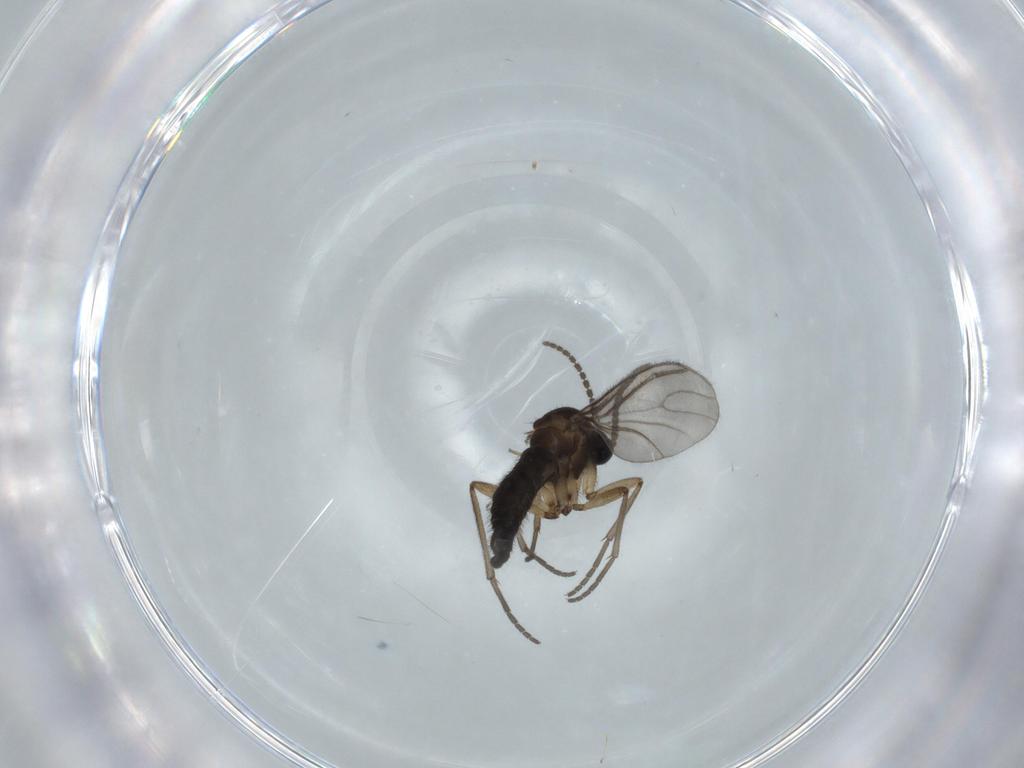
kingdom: Animalia
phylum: Arthropoda
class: Insecta
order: Diptera
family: Sciaridae
